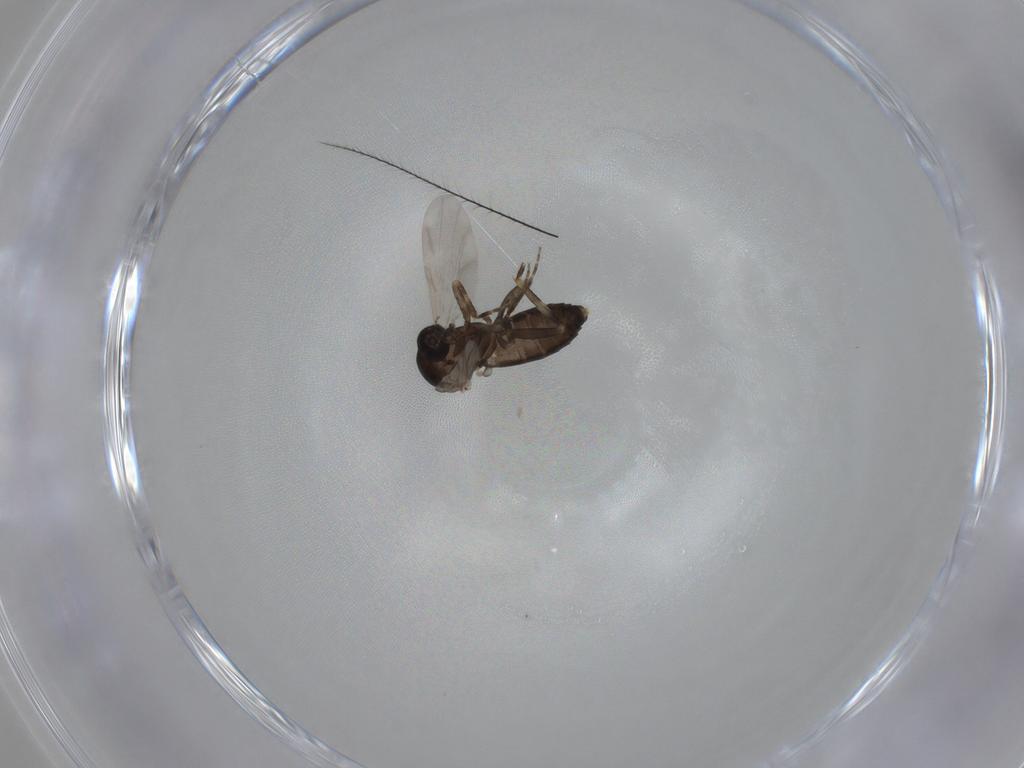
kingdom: Animalia
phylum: Arthropoda
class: Insecta
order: Diptera
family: Ceratopogonidae
